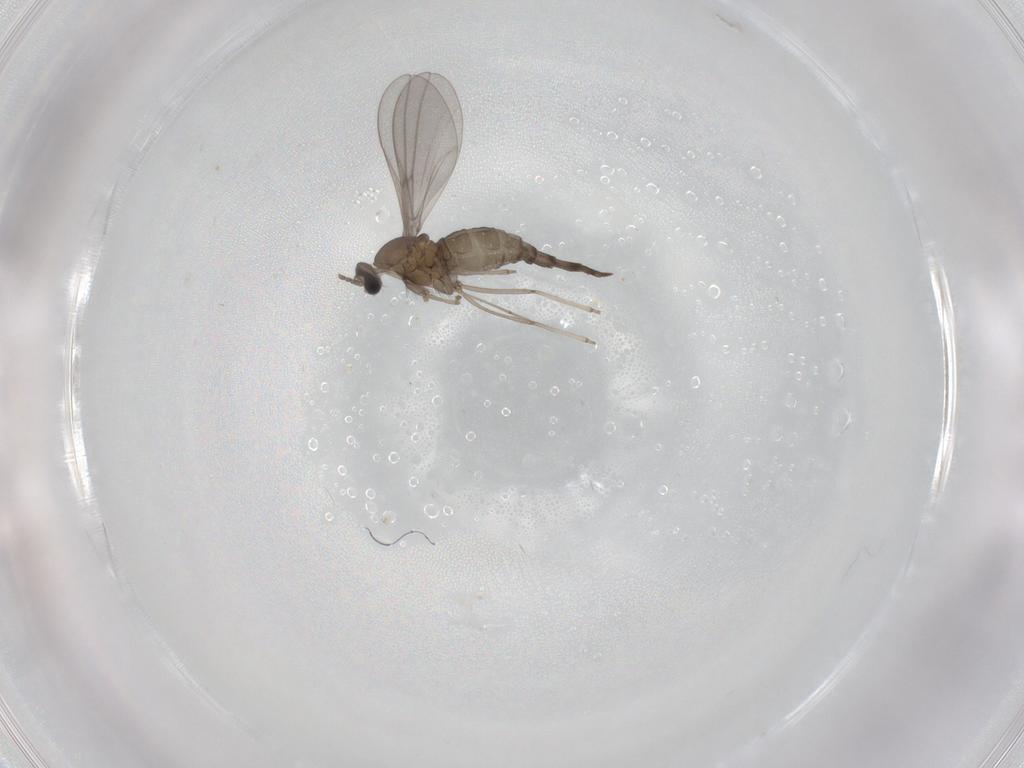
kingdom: Animalia
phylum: Arthropoda
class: Insecta
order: Diptera
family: Cecidomyiidae
